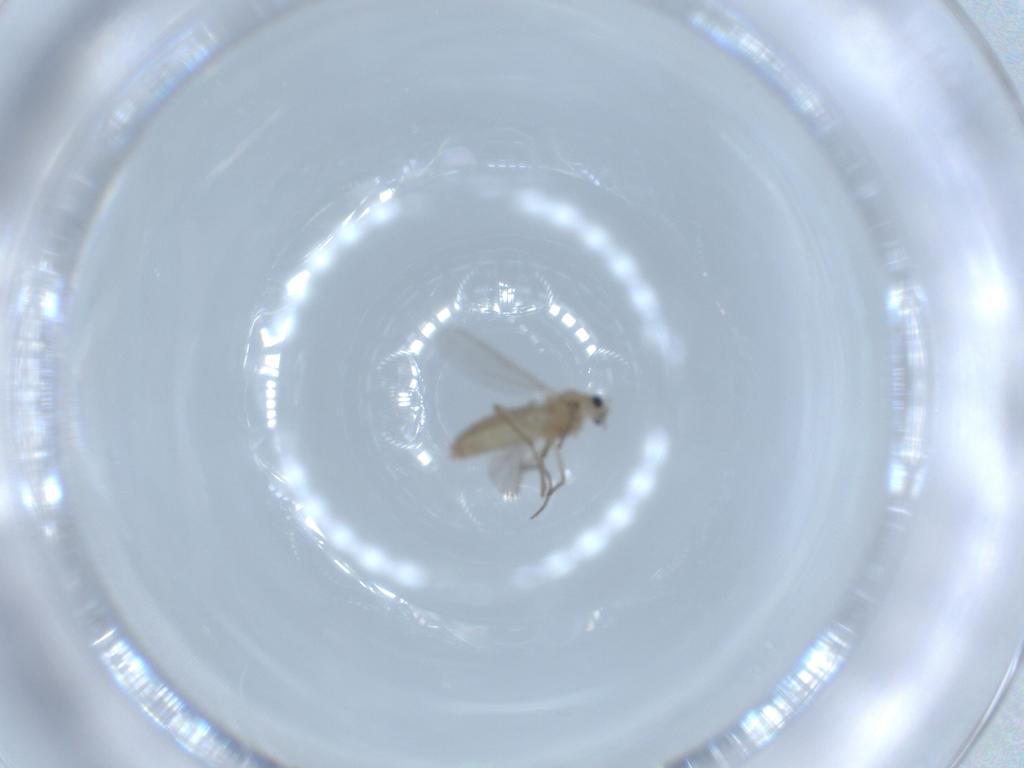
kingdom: Animalia
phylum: Arthropoda
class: Insecta
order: Diptera
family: Chironomidae
